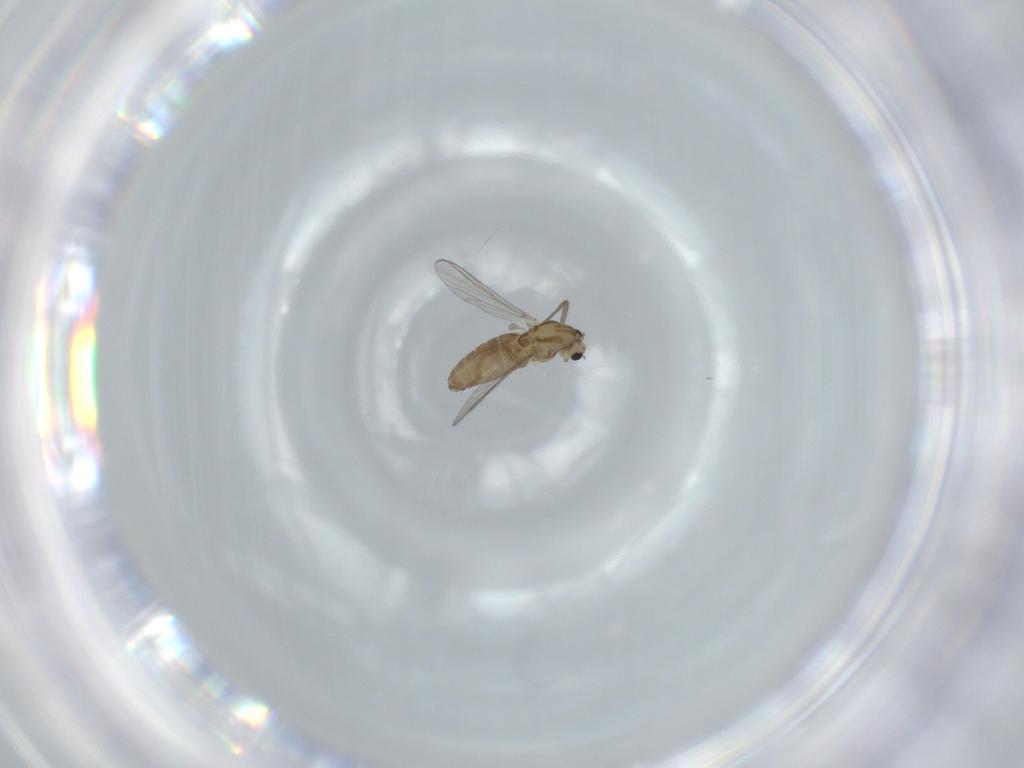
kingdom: Animalia
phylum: Arthropoda
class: Insecta
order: Diptera
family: Chironomidae
